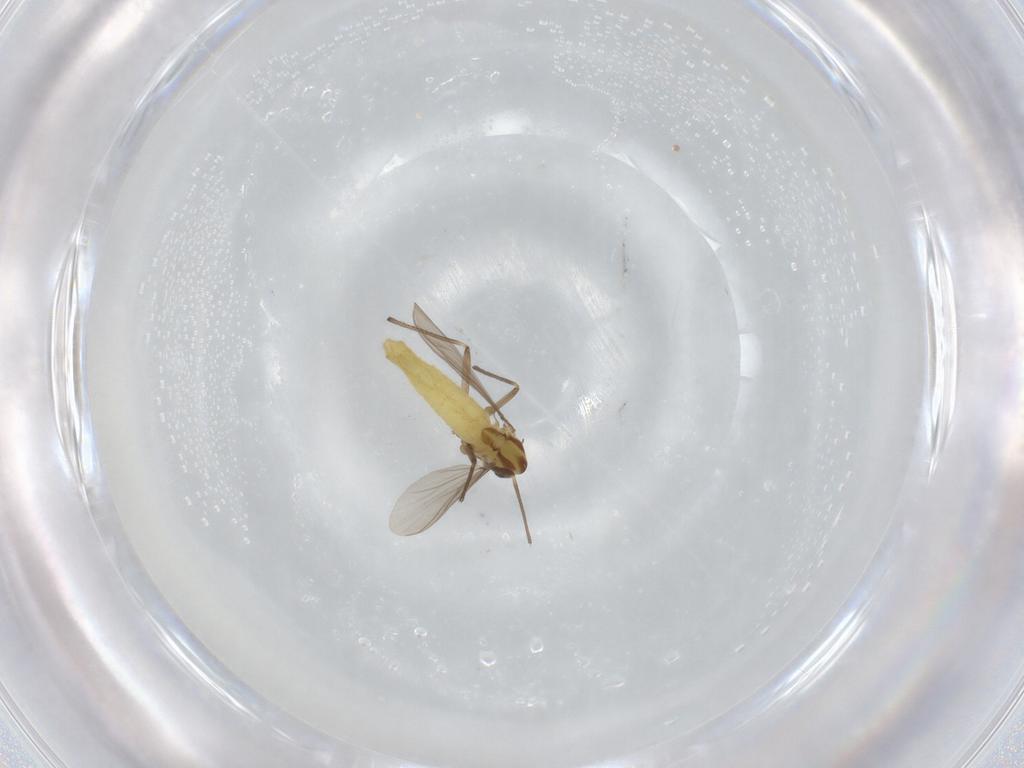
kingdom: Animalia
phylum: Arthropoda
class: Insecta
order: Diptera
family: Chironomidae
